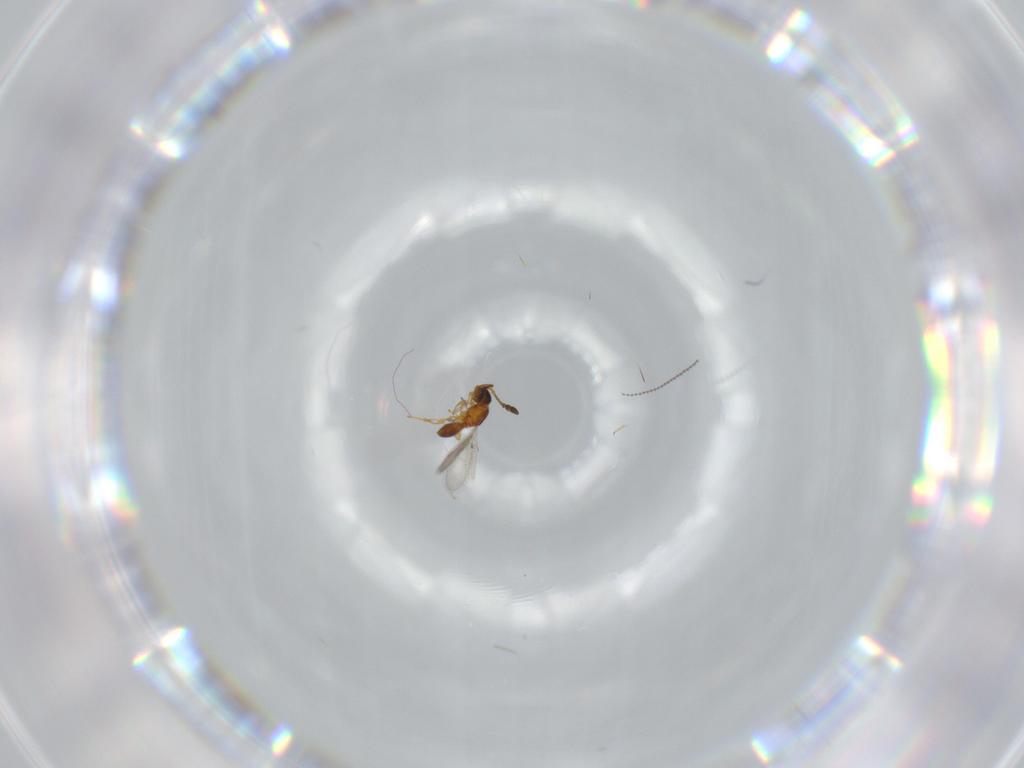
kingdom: Animalia
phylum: Arthropoda
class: Insecta
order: Hymenoptera
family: Diapriidae
